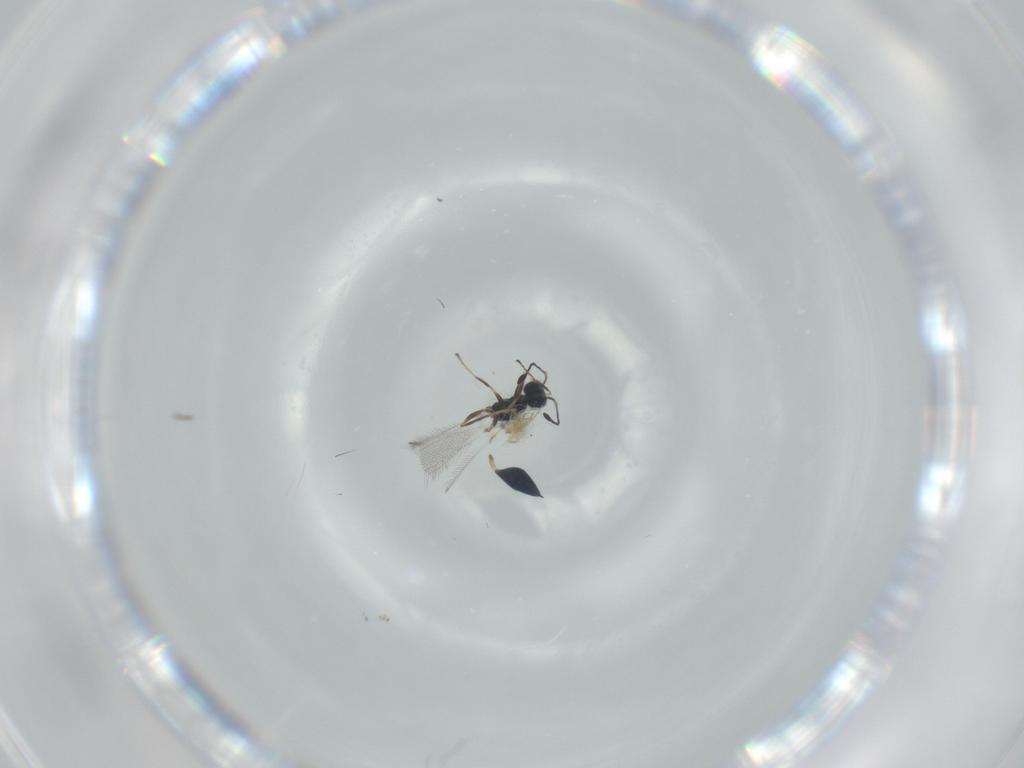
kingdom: Animalia
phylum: Arthropoda
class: Insecta
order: Hymenoptera
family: Mymaridae
